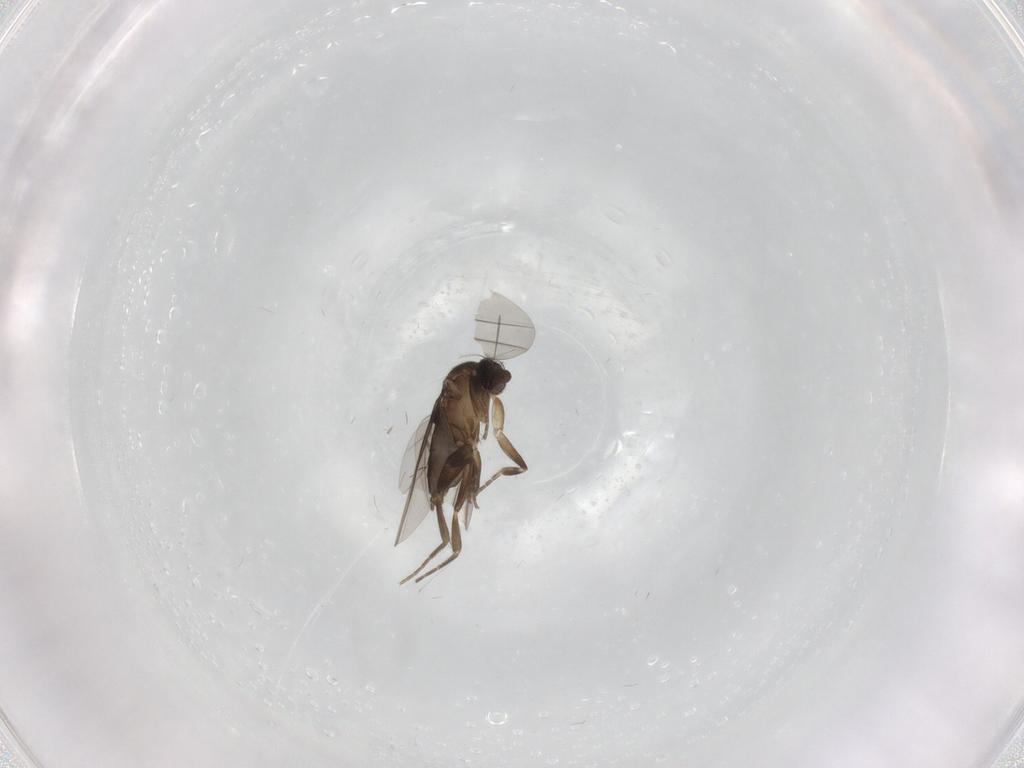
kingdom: Animalia
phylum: Arthropoda
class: Insecta
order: Diptera
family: Phoridae
